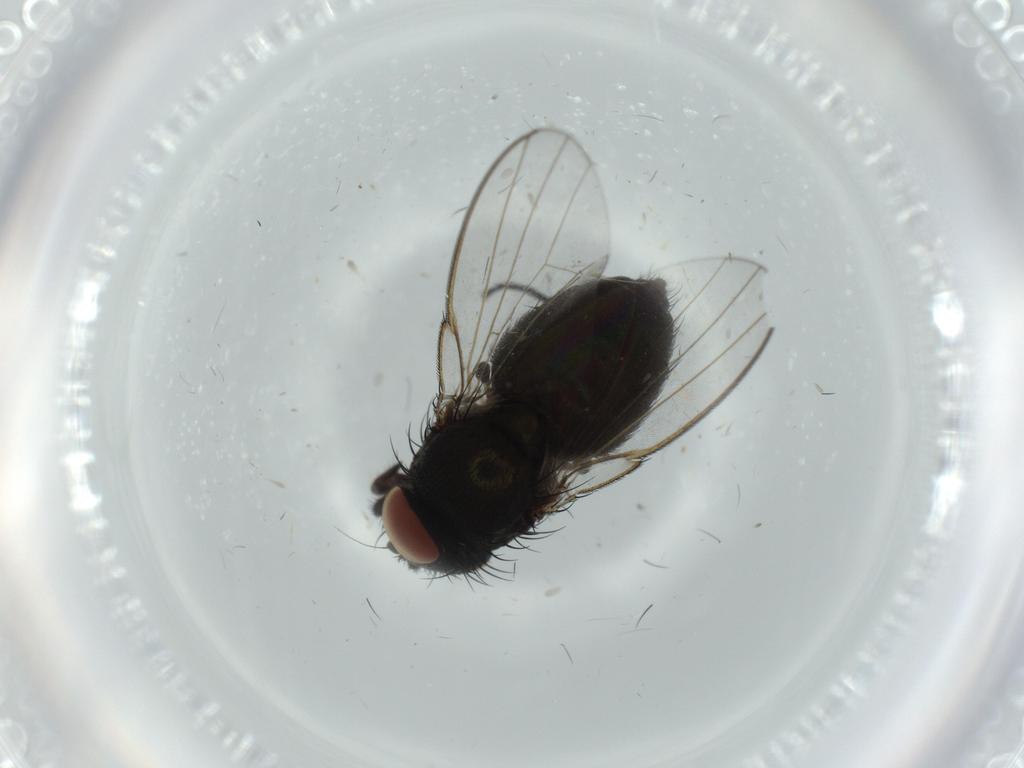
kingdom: Animalia
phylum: Arthropoda
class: Insecta
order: Diptera
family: Milichiidae
